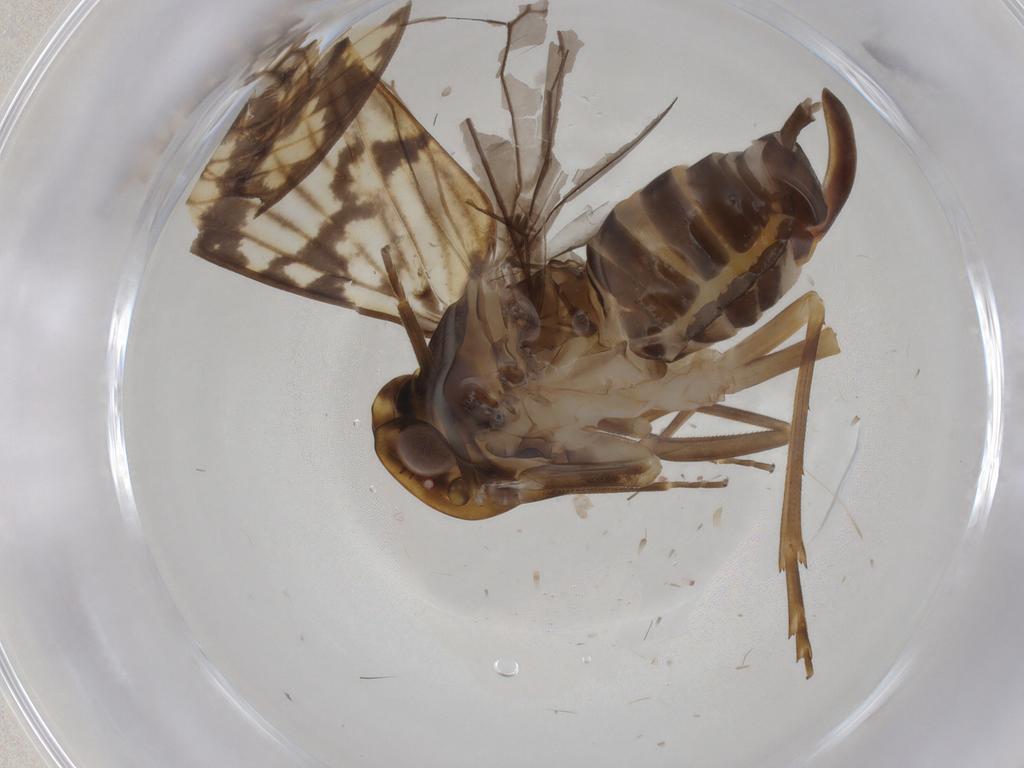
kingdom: Animalia
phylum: Arthropoda
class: Insecta
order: Hemiptera
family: Cixiidae
